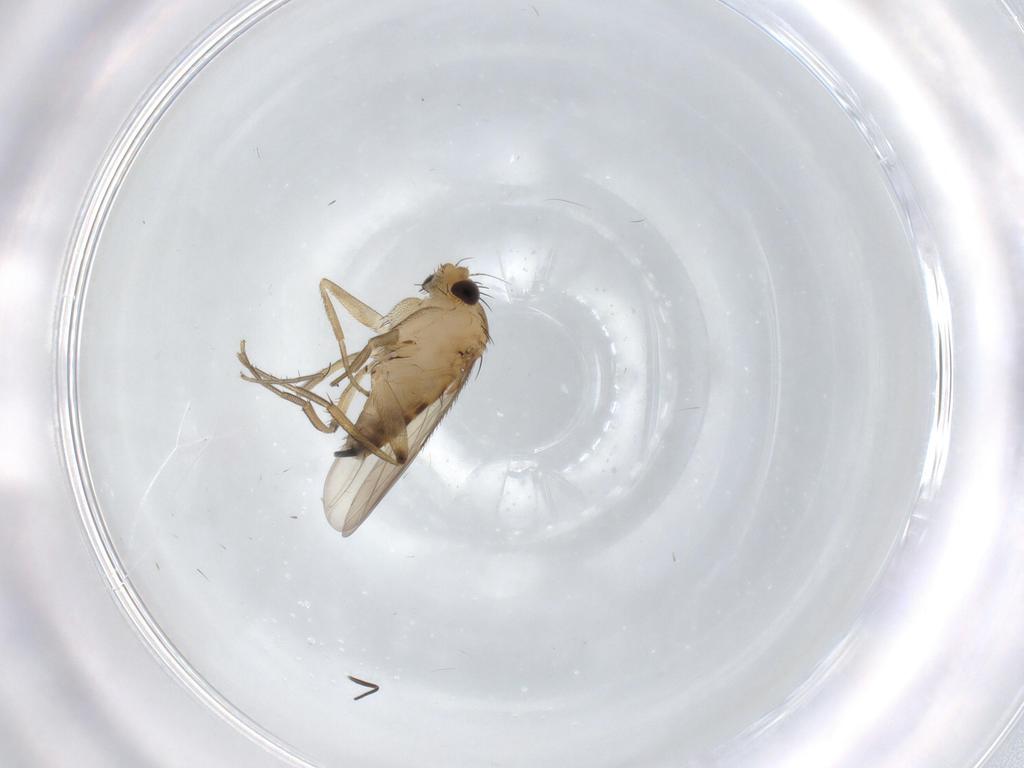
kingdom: Animalia
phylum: Arthropoda
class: Insecta
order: Diptera
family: Phoridae
